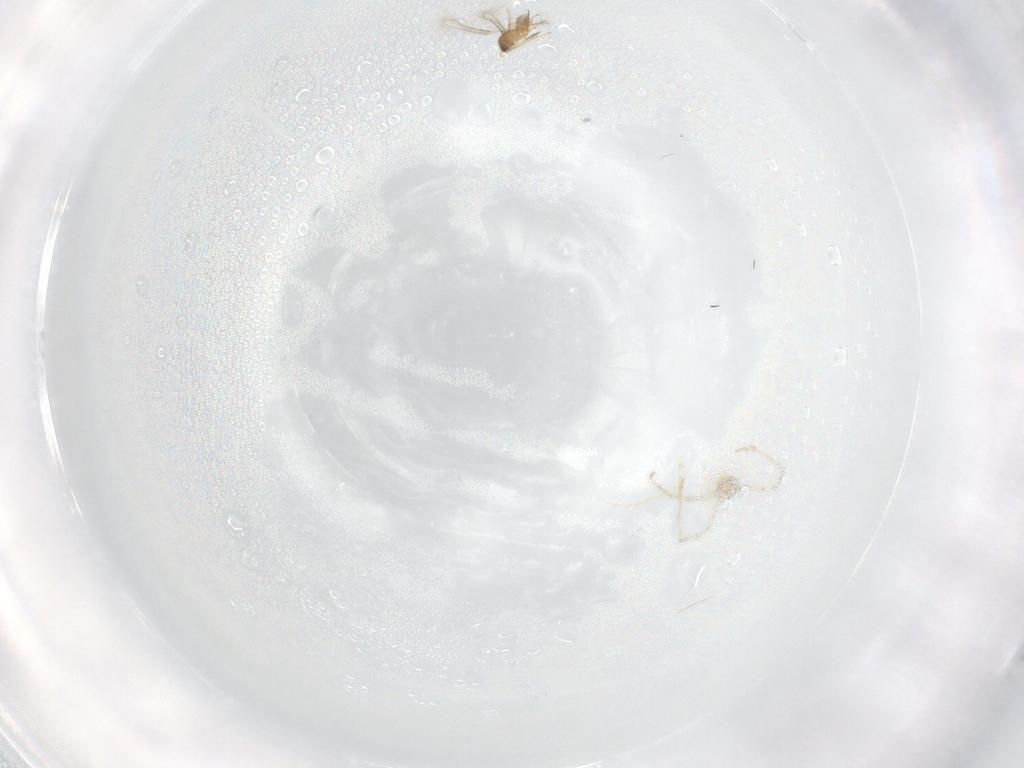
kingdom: Animalia
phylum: Arthropoda
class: Insecta
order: Hymenoptera
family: Mymaridae
